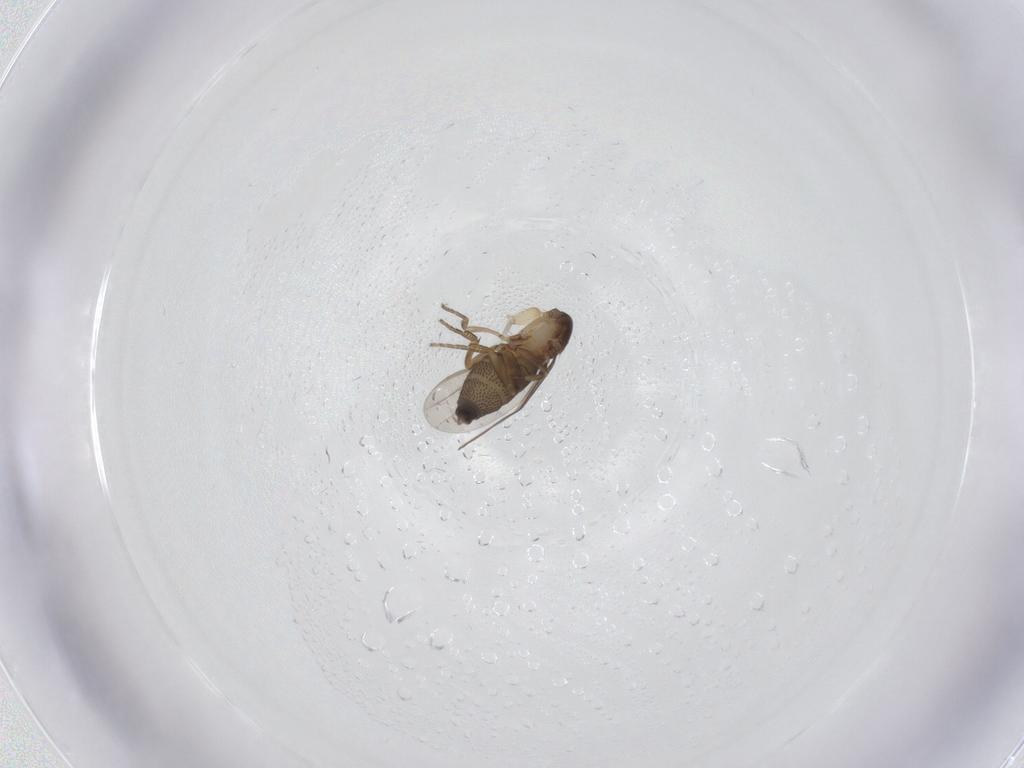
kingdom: Animalia
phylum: Arthropoda
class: Insecta
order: Diptera
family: Phoridae
